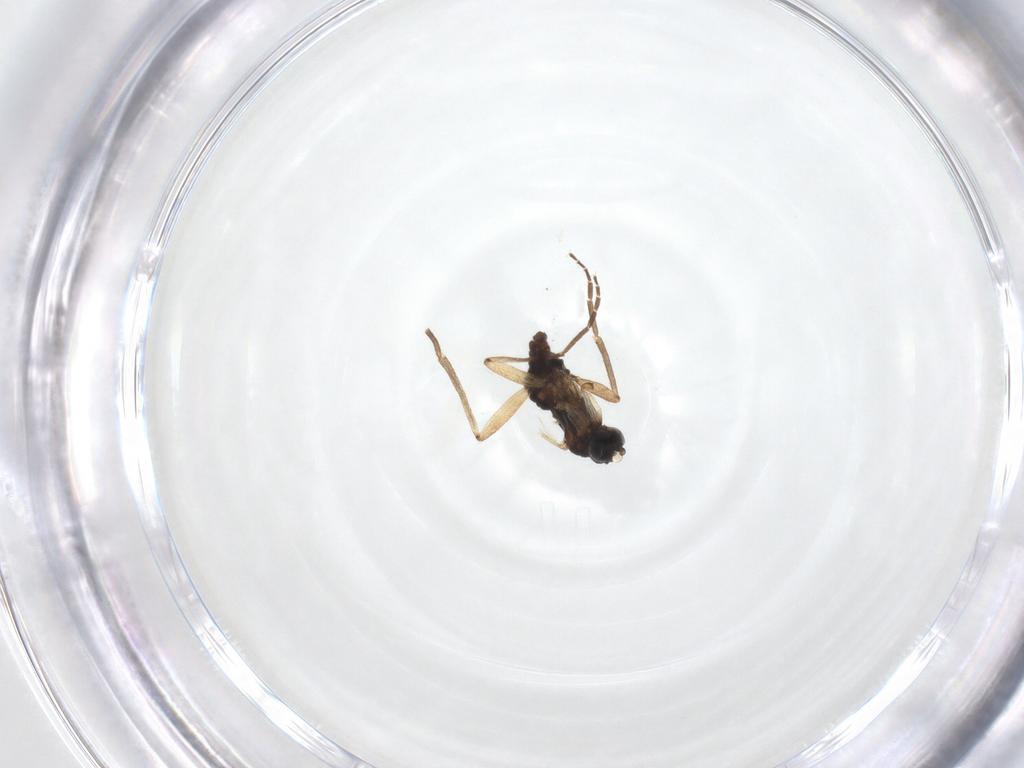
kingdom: Animalia
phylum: Arthropoda
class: Insecta
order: Diptera
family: Sciaridae
